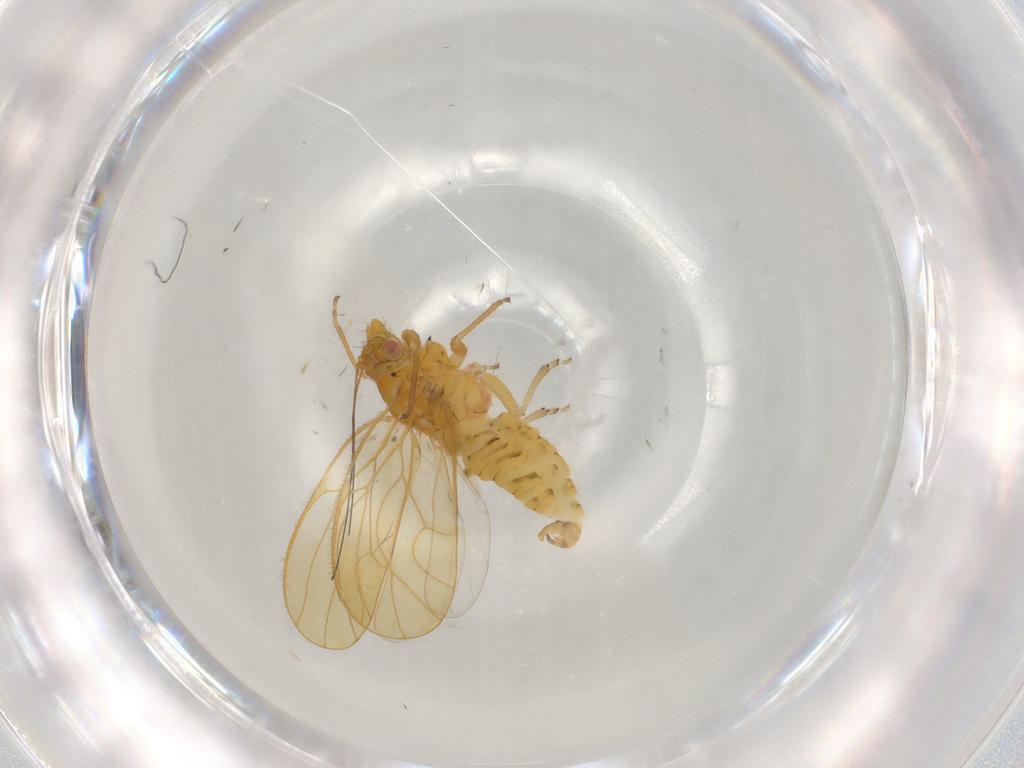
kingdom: Animalia
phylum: Arthropoda
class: Insecta
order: Hemiptera
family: Psyllidae
